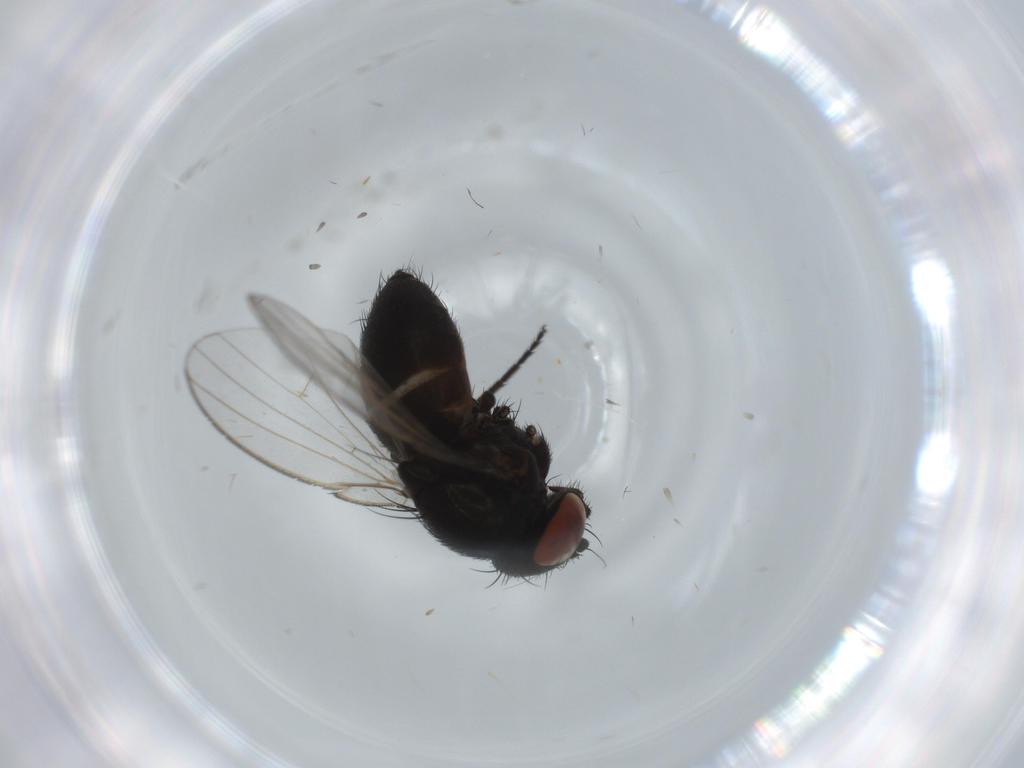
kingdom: Animalia
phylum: Arthropoda
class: Insecta
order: Diptera
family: Milichiidae
